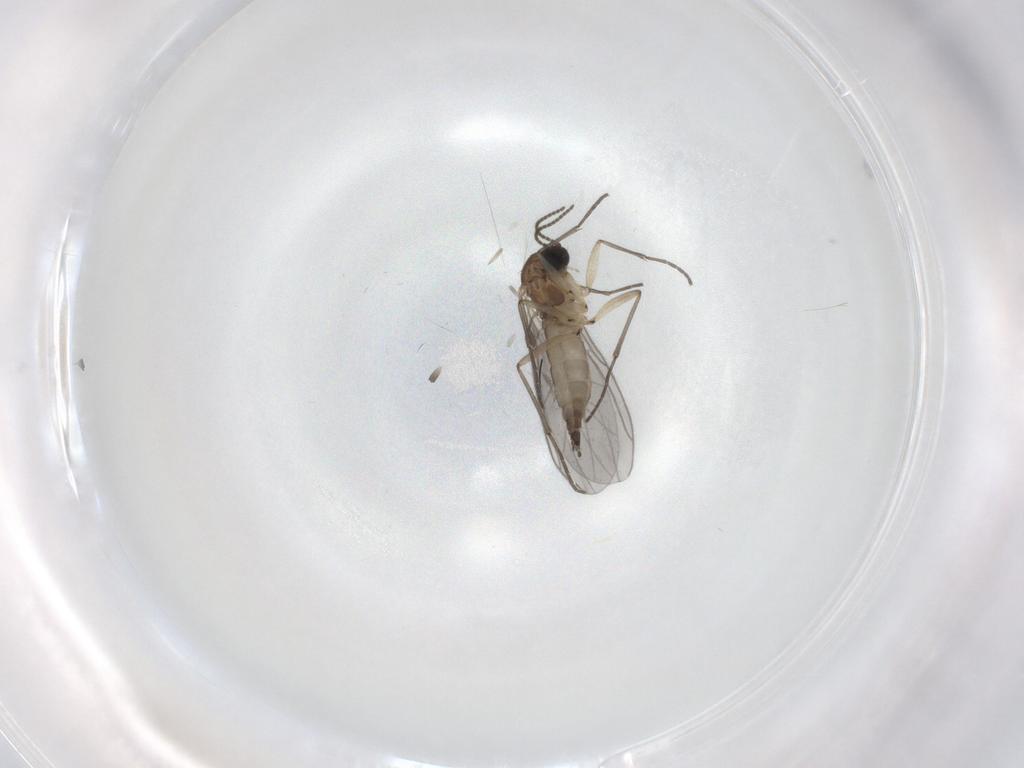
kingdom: Animalia
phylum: Arthropoda
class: Insecta
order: Diptera
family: Sciaridae
